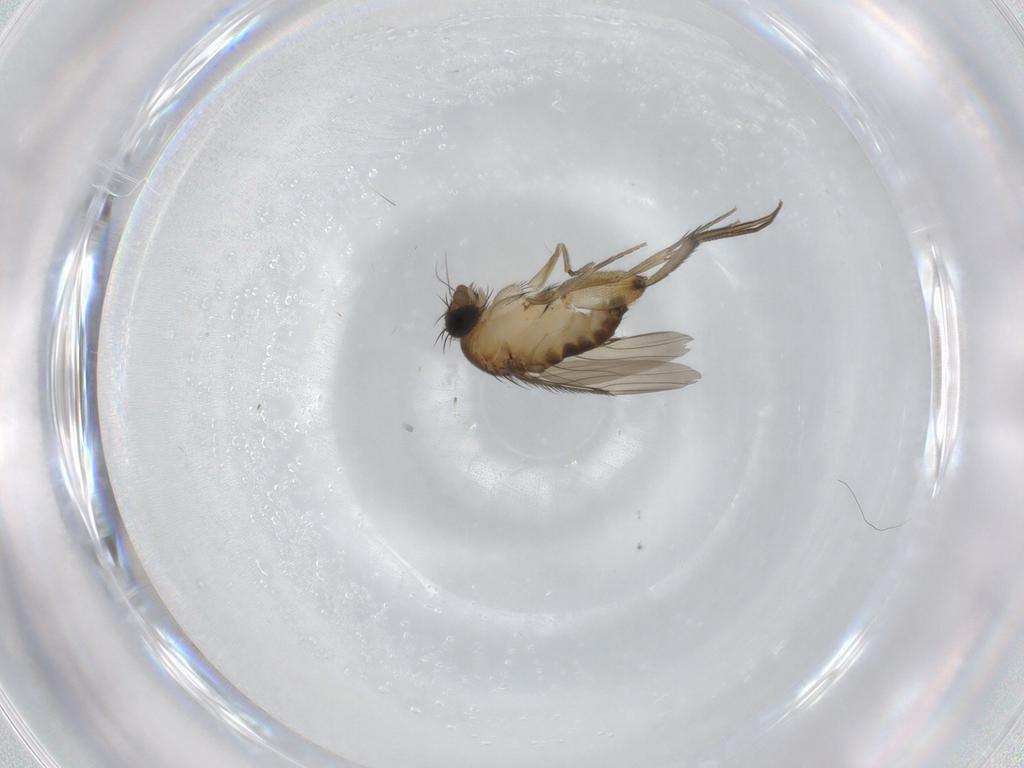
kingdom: Animalia
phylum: Arthropoda
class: Insecta
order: Diptera
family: Phoridae
